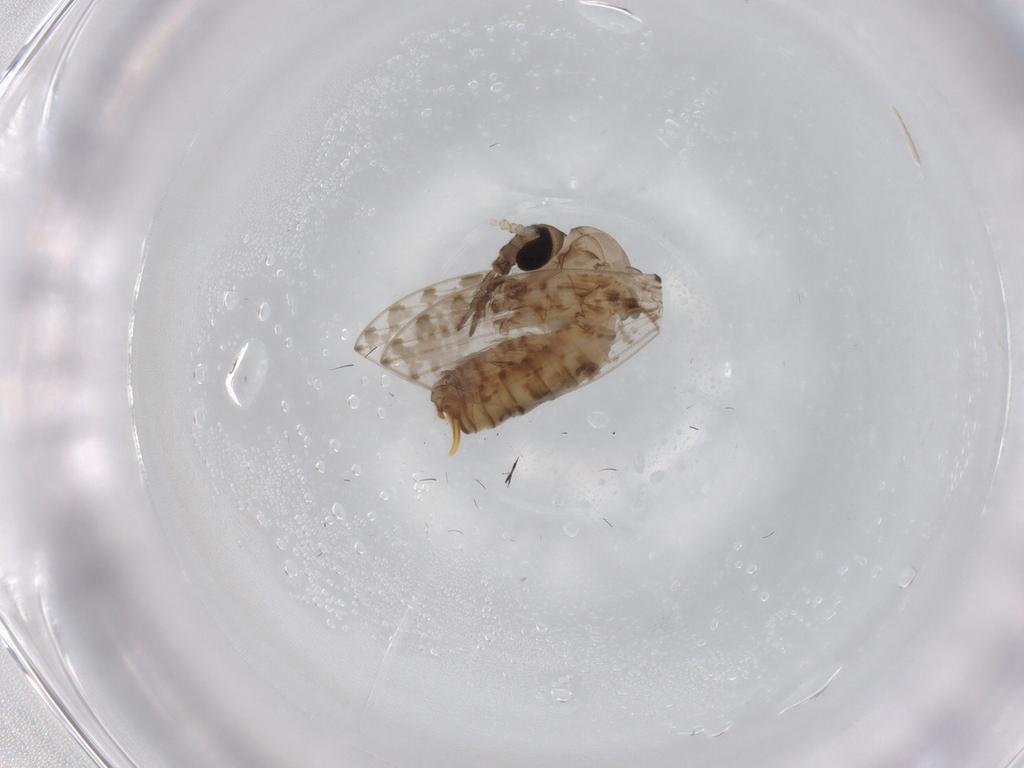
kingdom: Animalia
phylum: Arthropoda
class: Insecta
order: Diptera
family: Psychodidae
